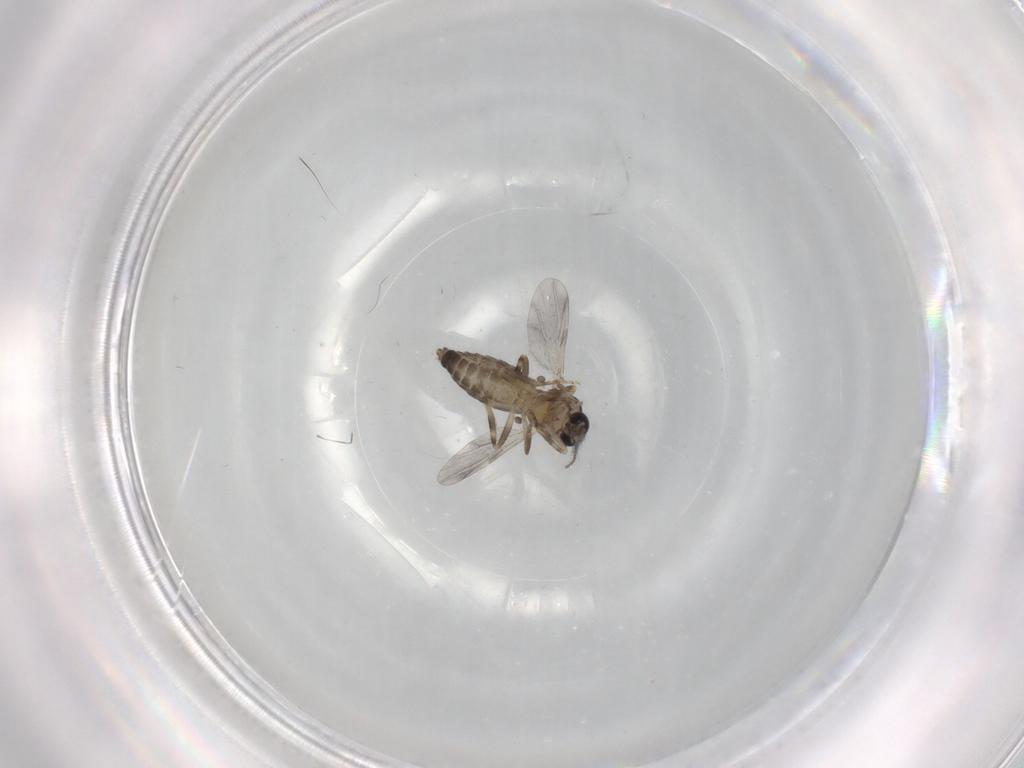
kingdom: Animalia
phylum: Arthropoda
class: Insecta
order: Diptera
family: Ceratopogonidae
